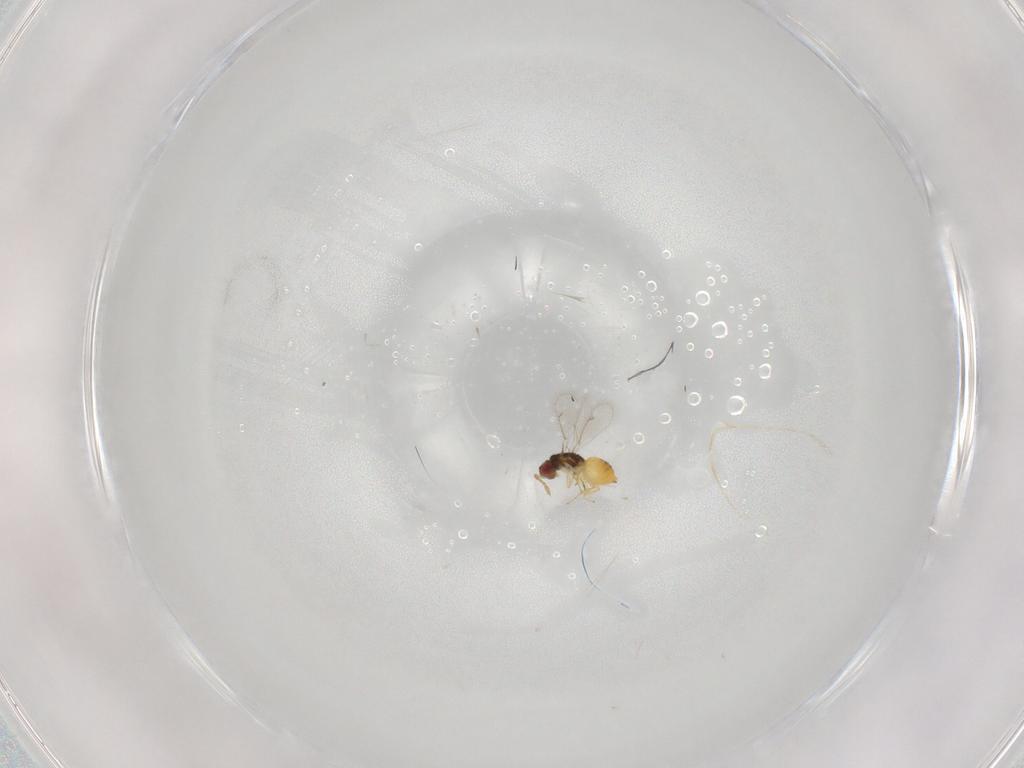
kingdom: Animalia
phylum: Arthropoda
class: Insecta
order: Hymenoptera
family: Eulophidae
